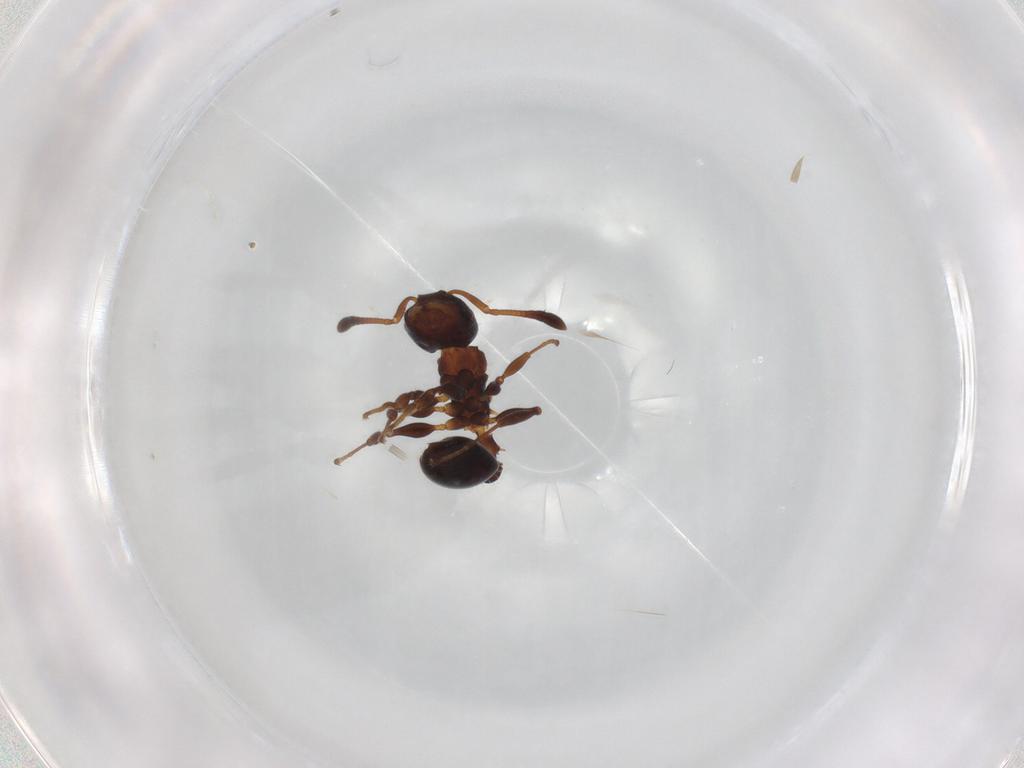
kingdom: Animalia
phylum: Arthropoda
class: Insecta
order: Hymenoptera
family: Formicidae
